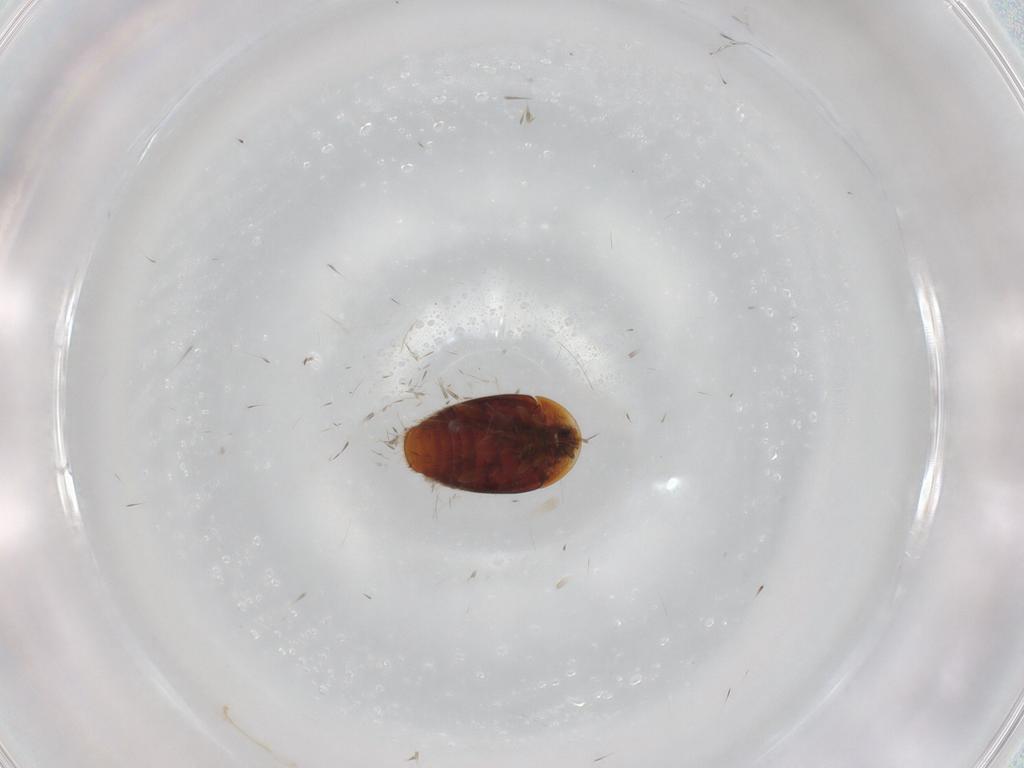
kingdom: Animalia
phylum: Arthropoda
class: Insecta
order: Coleoptera
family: Corylophidae
